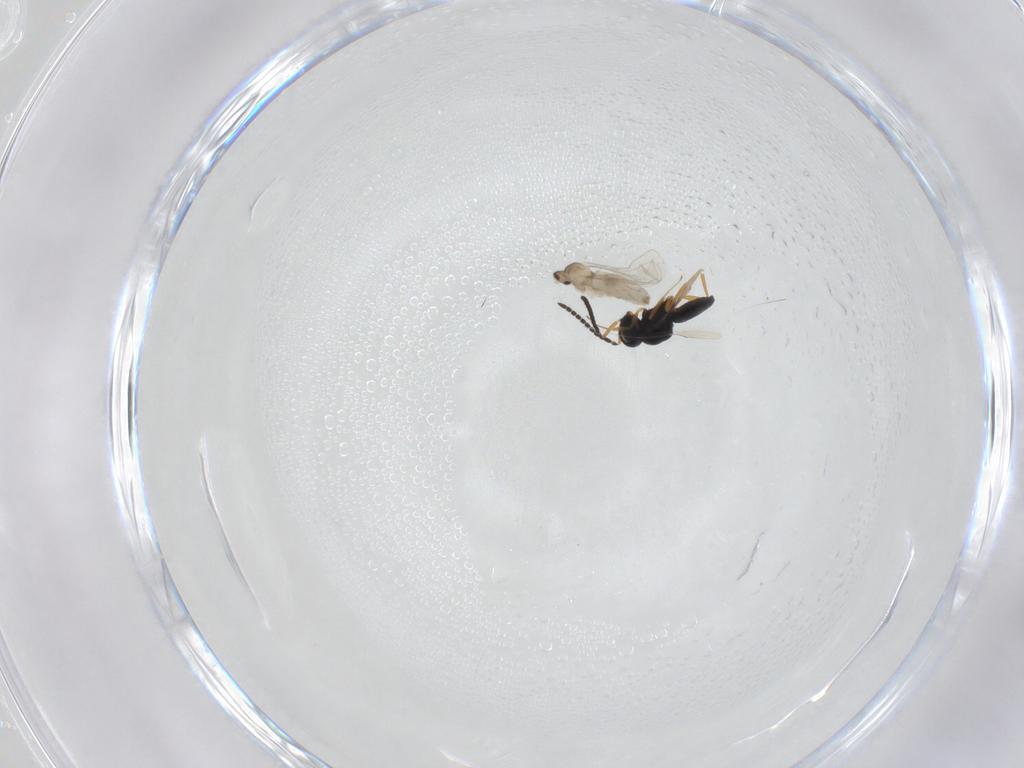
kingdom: Animalia
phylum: Arthropoda
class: Insecta
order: Diptera
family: Cecidomyiidae
